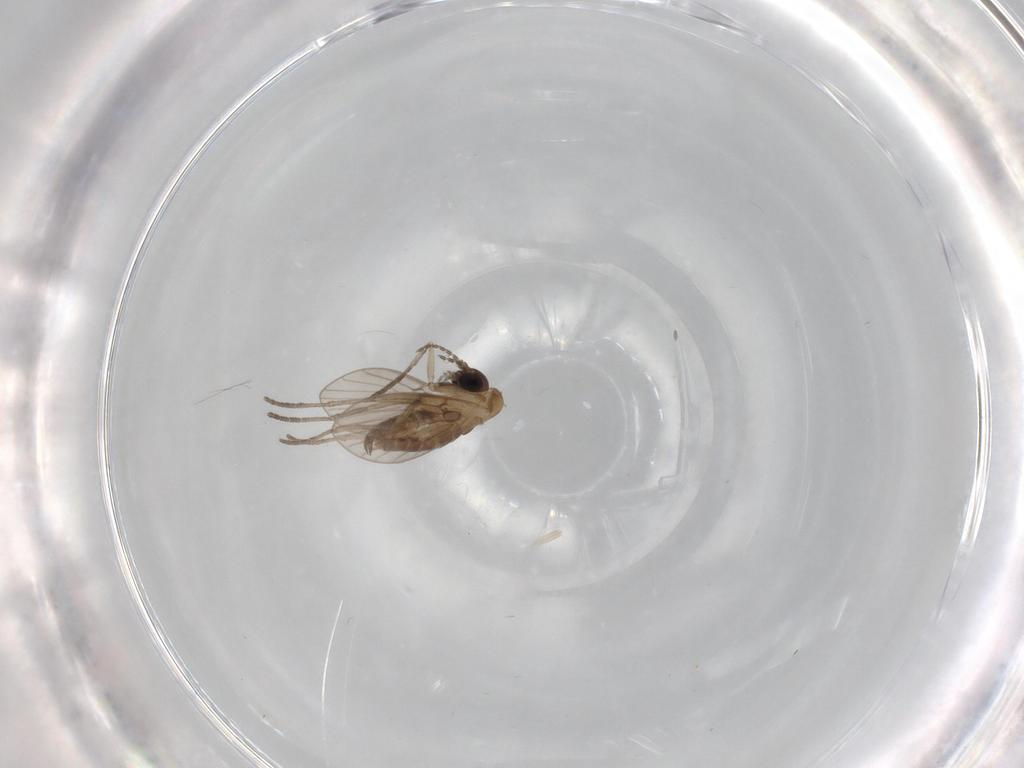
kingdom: Animalia
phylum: Arthropoda
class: Insecta
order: Diptera
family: Psychodidae
